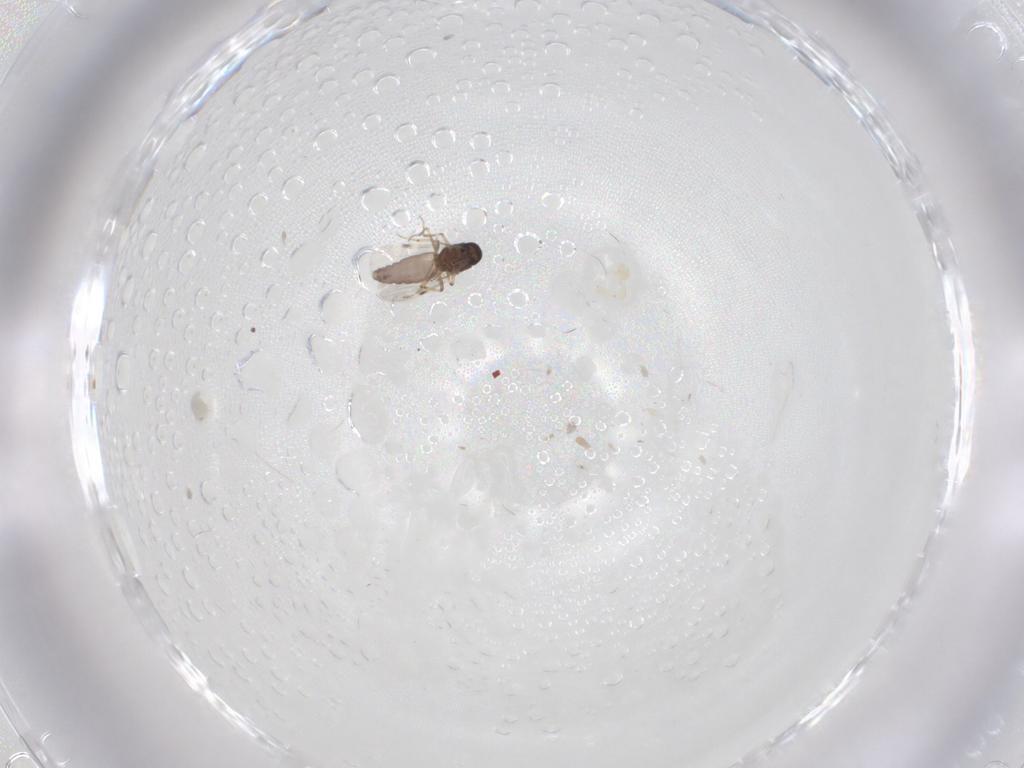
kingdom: Animalia
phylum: Arthropoda
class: Insecta
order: Diptera
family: Chironomidae
